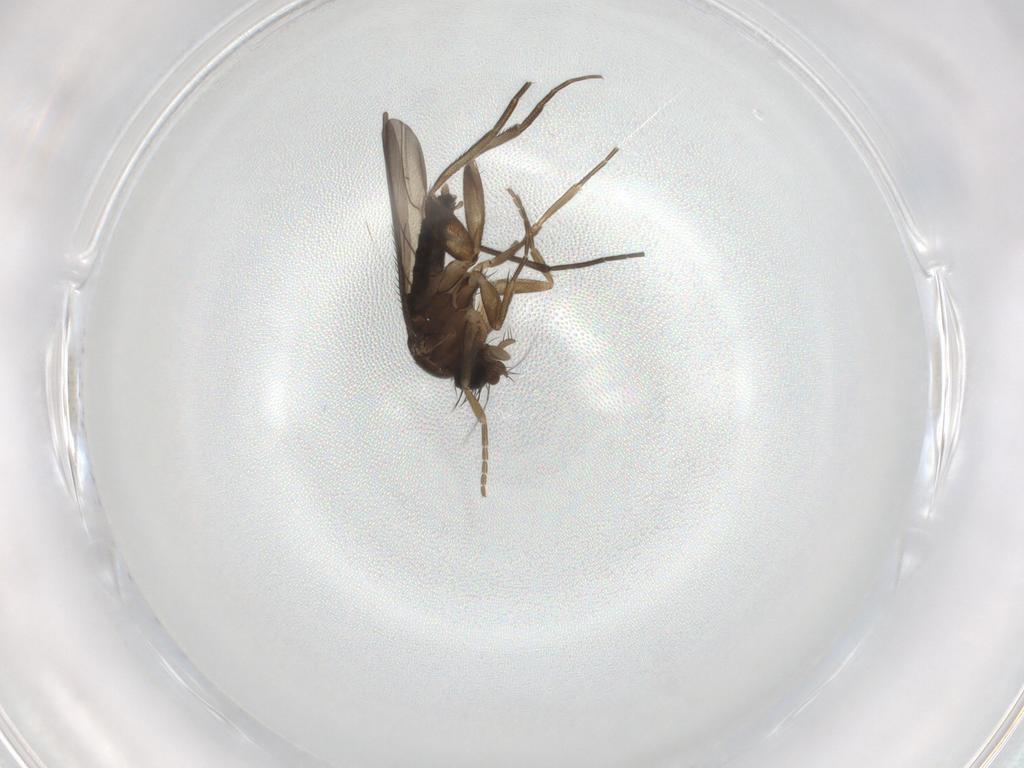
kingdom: Animalia
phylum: Arthropoda
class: Insecta
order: Diptera
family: Phoridae
